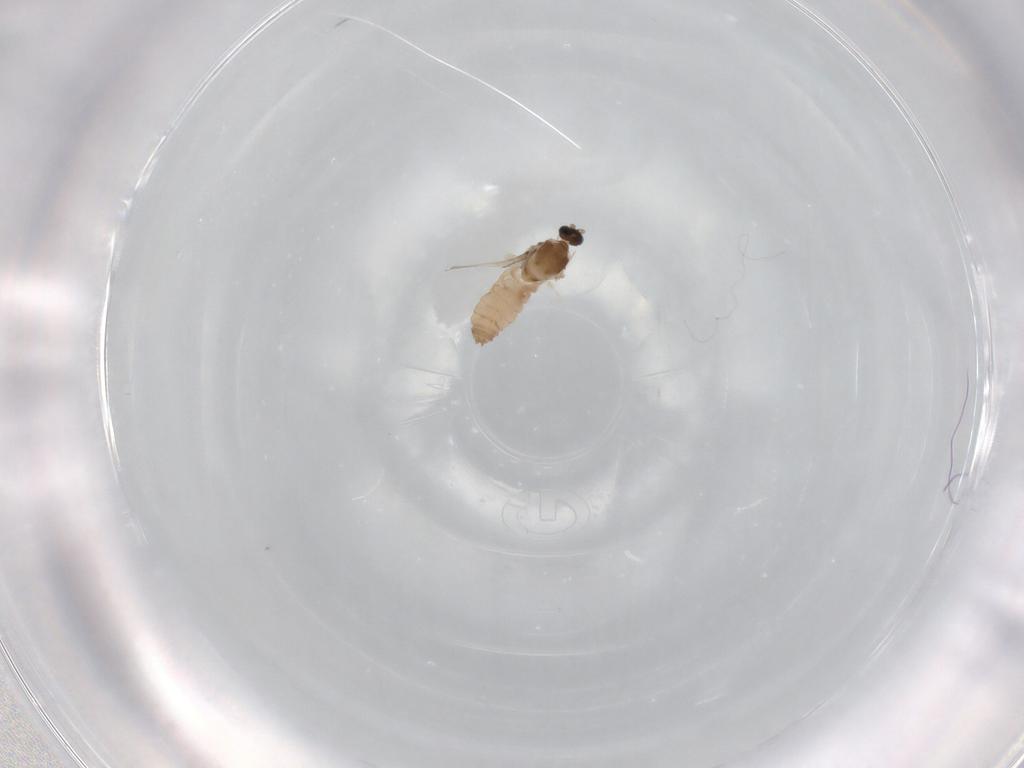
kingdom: Animalia
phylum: Arthropoda
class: Insecta
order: Diptera
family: Cecidomyiidae
